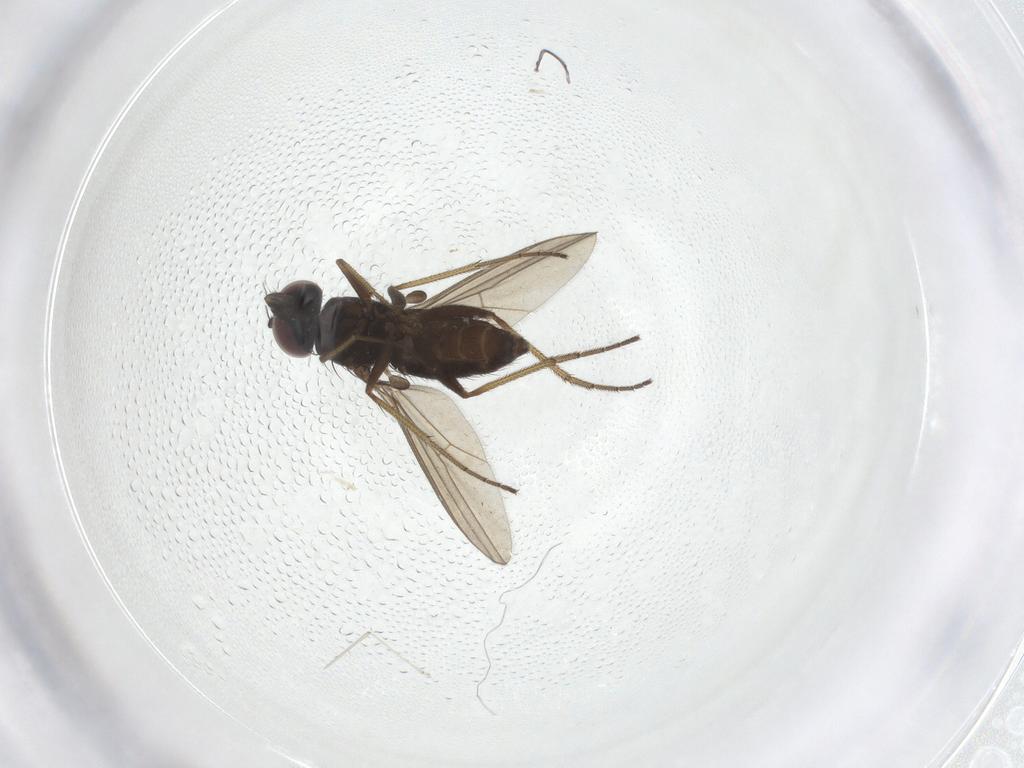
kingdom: Animalia
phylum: Arthropoda
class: Insecta
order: Diptera
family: Dolichopodidae
